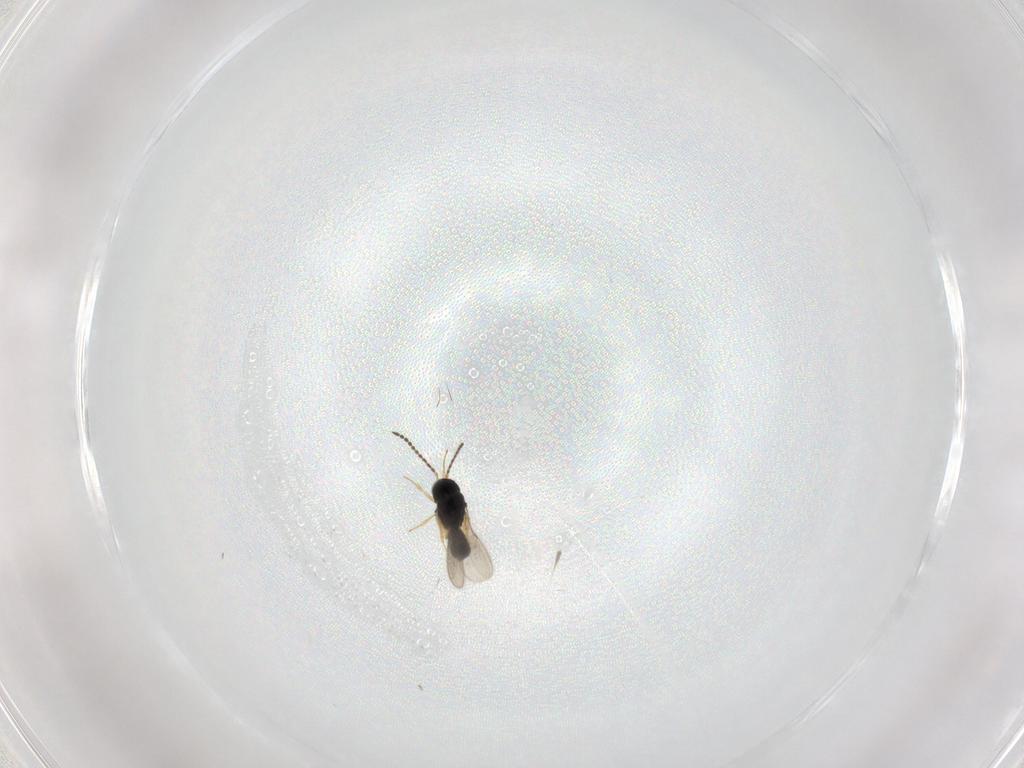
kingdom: Animalia
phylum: Arthropoda
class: Insecta
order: Hymenoptera
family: Scelionidae
